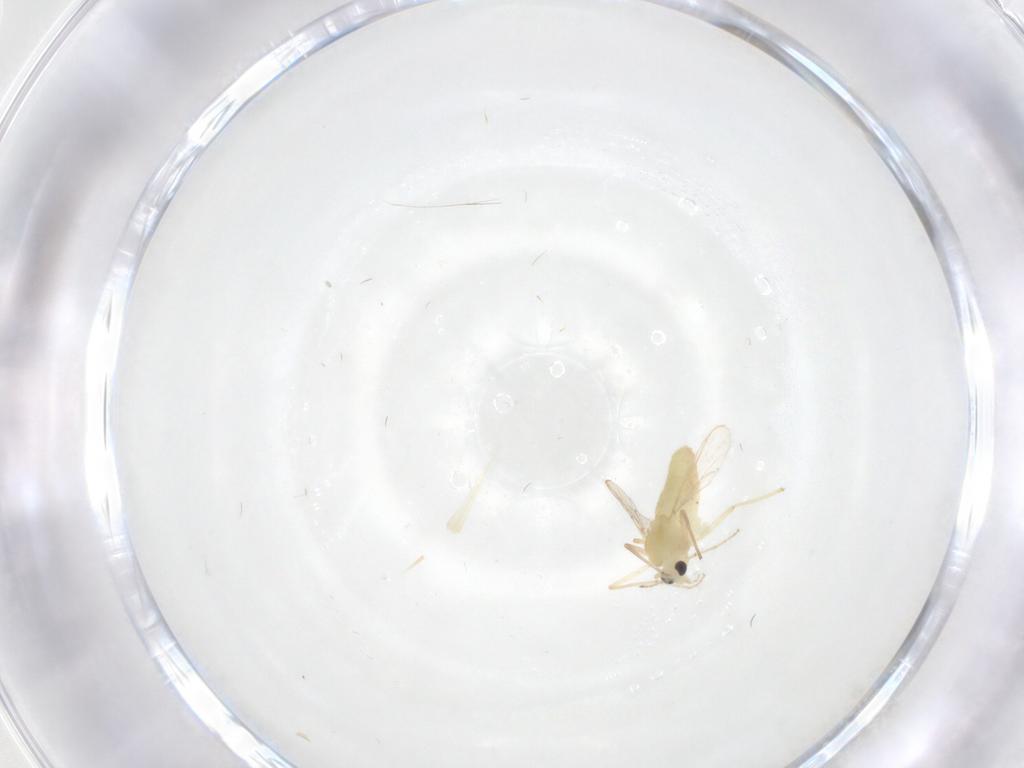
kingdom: Animalia
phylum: Arthropoda
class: Insecta
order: Diptera
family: Chironomidae
